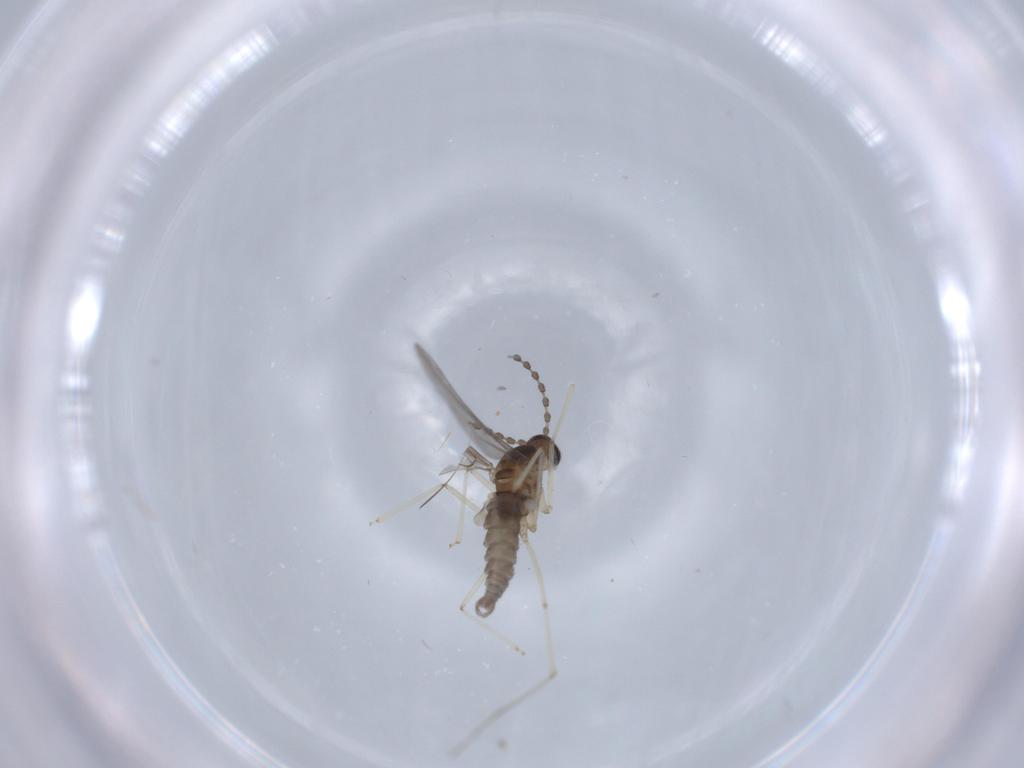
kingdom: Animalia
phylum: Arthropoda
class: Insecta
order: Diptera
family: Cecidomyiidae
